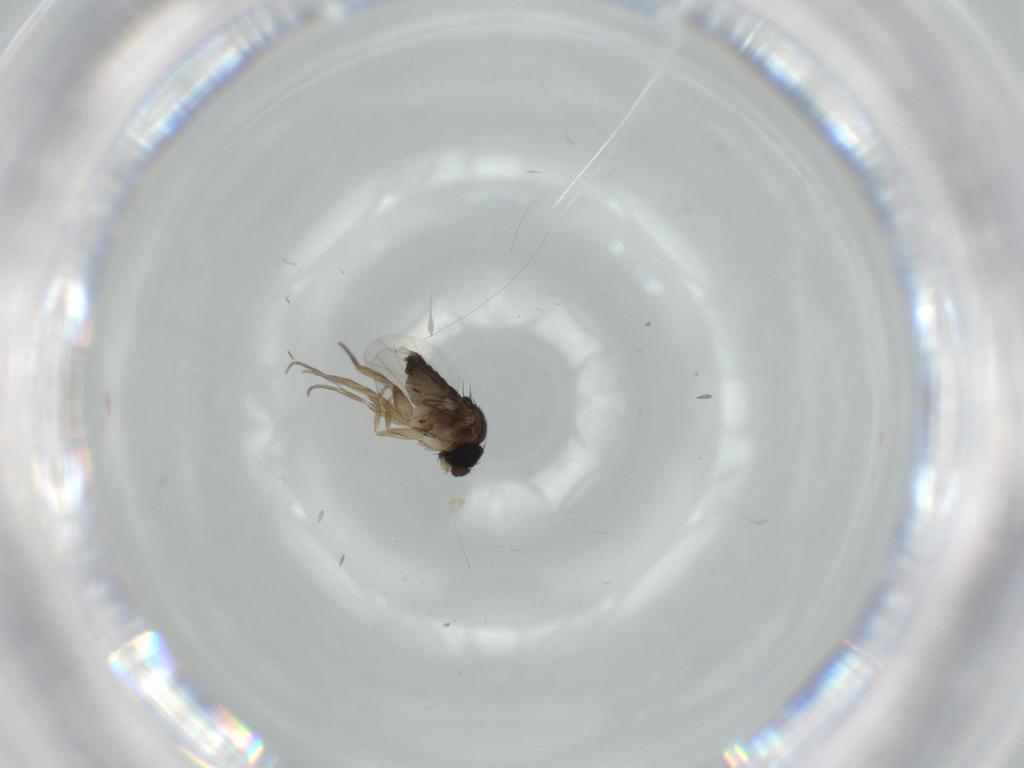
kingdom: Animalia
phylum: Arthropoda
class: Insecta
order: Diptera
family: Phoridae
